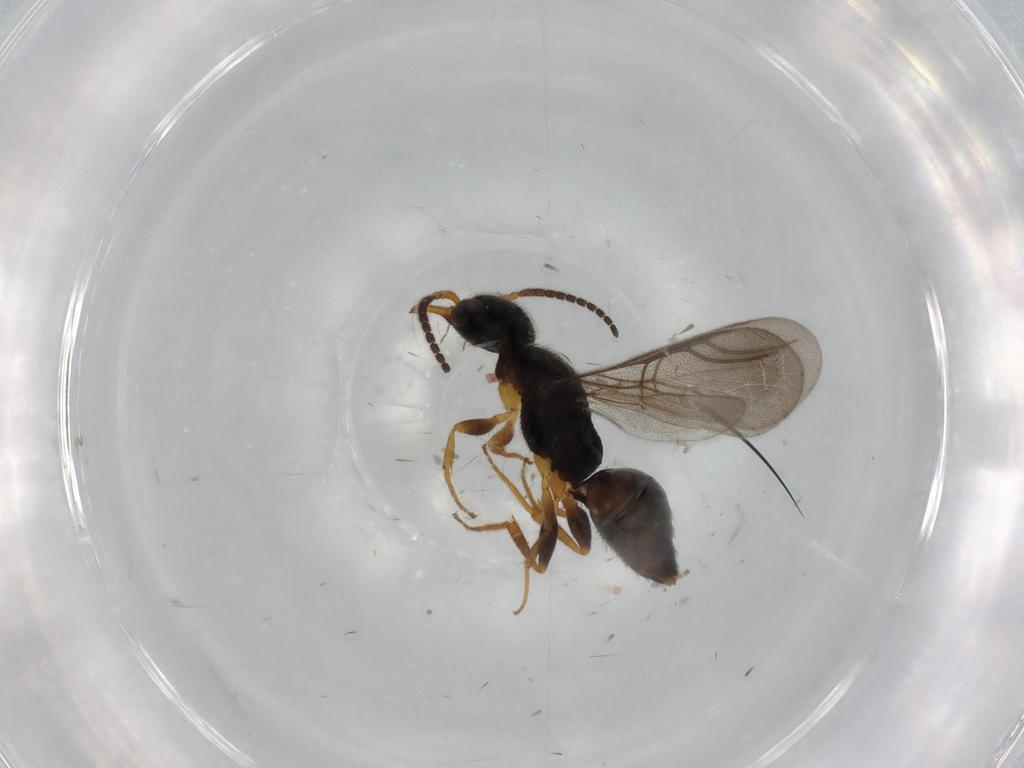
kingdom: Animalia
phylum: Arthropoda
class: Insecta
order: Hymenoptera
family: Bethylidae
